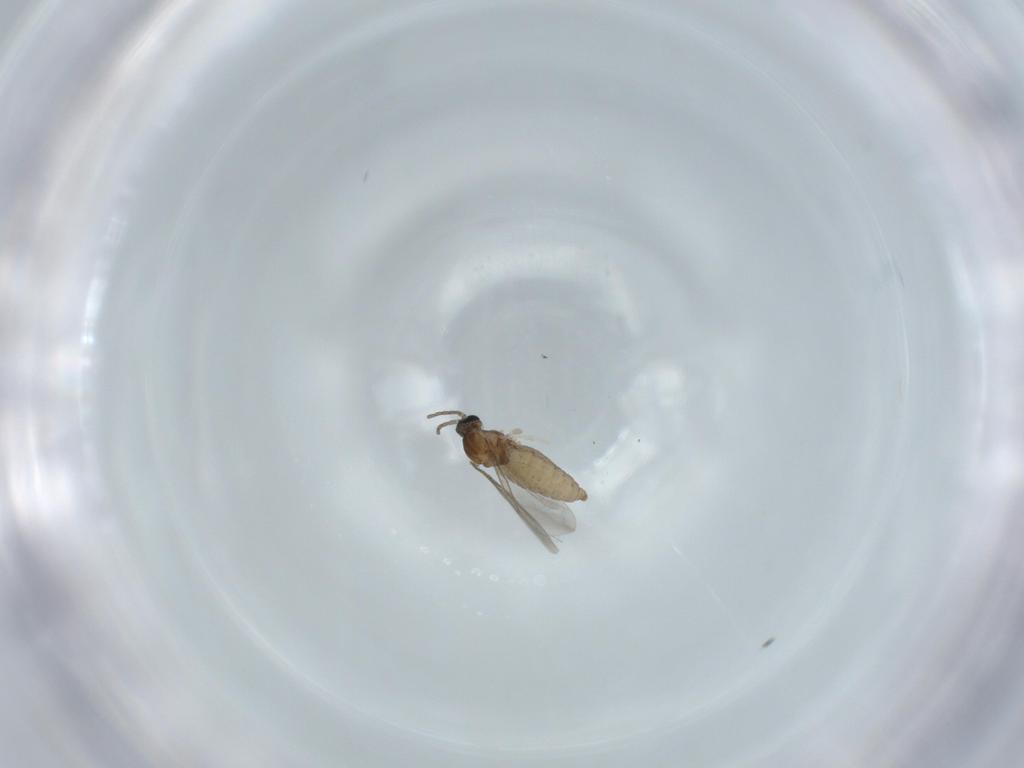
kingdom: Animalia
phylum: Arthropoda
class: Insecta
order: Diptera
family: Cecidomyiidae
